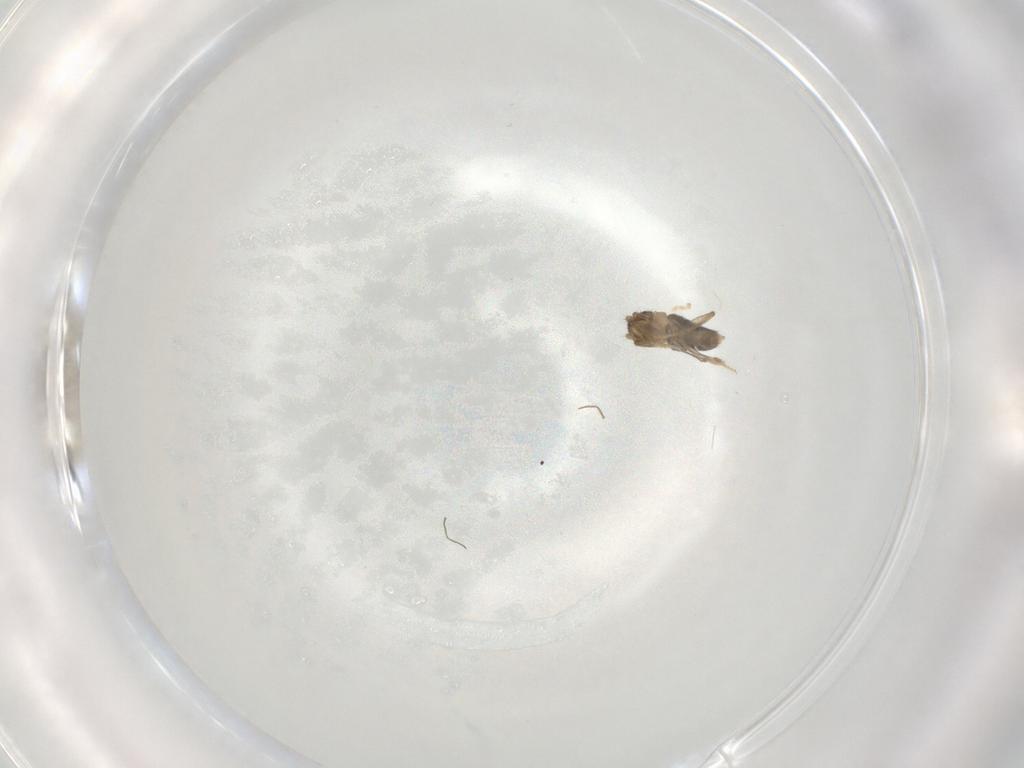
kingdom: Animalia
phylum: Arthropoda
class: Insecta
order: Diptera
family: Phoridae
